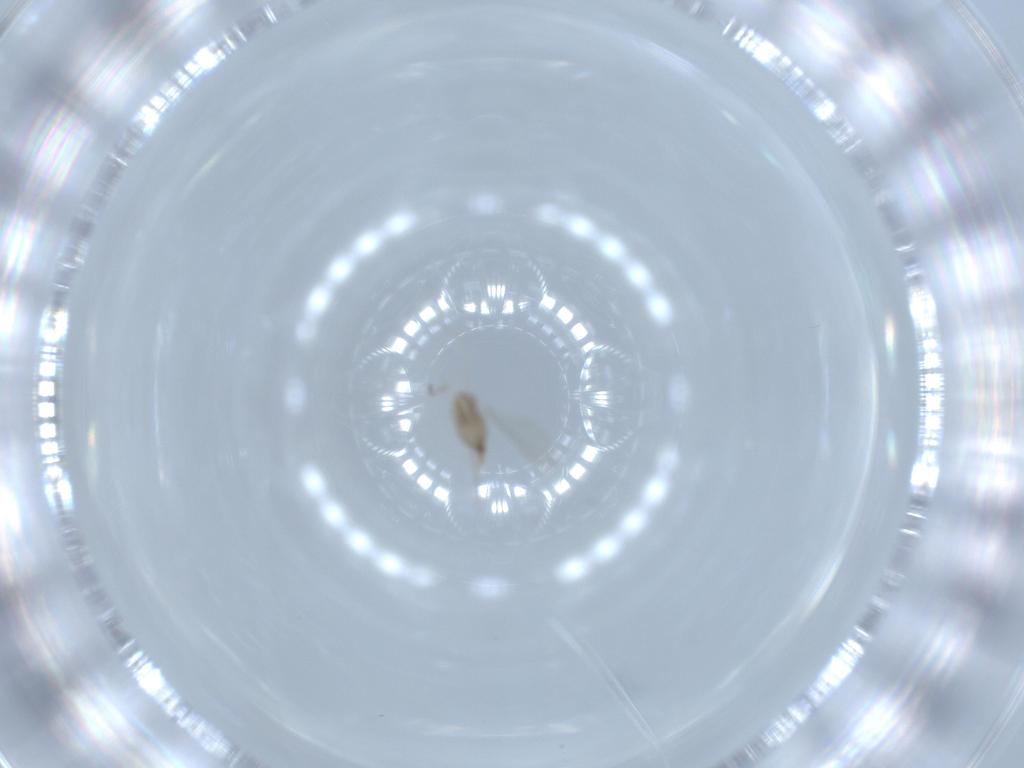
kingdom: Animalia
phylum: Arthropoda
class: Insecta
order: Diptera
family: Cecidomyiidae
